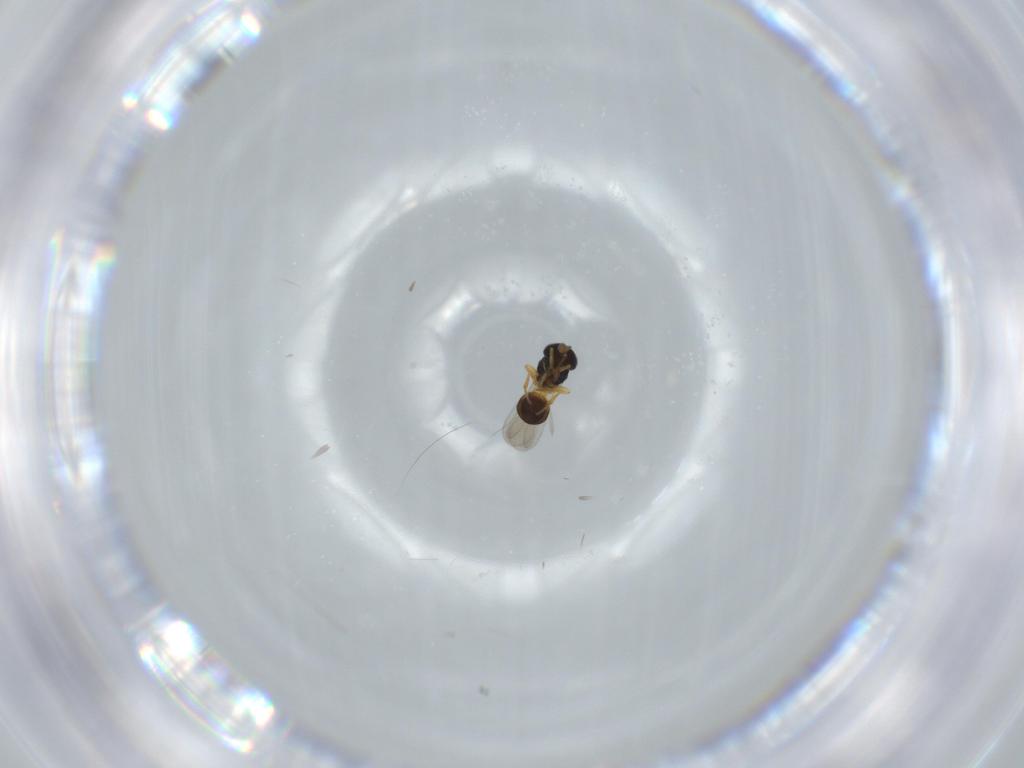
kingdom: Animalia
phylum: Arthropoda
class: Insecta
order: Hymenoptera
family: Scelionidae
